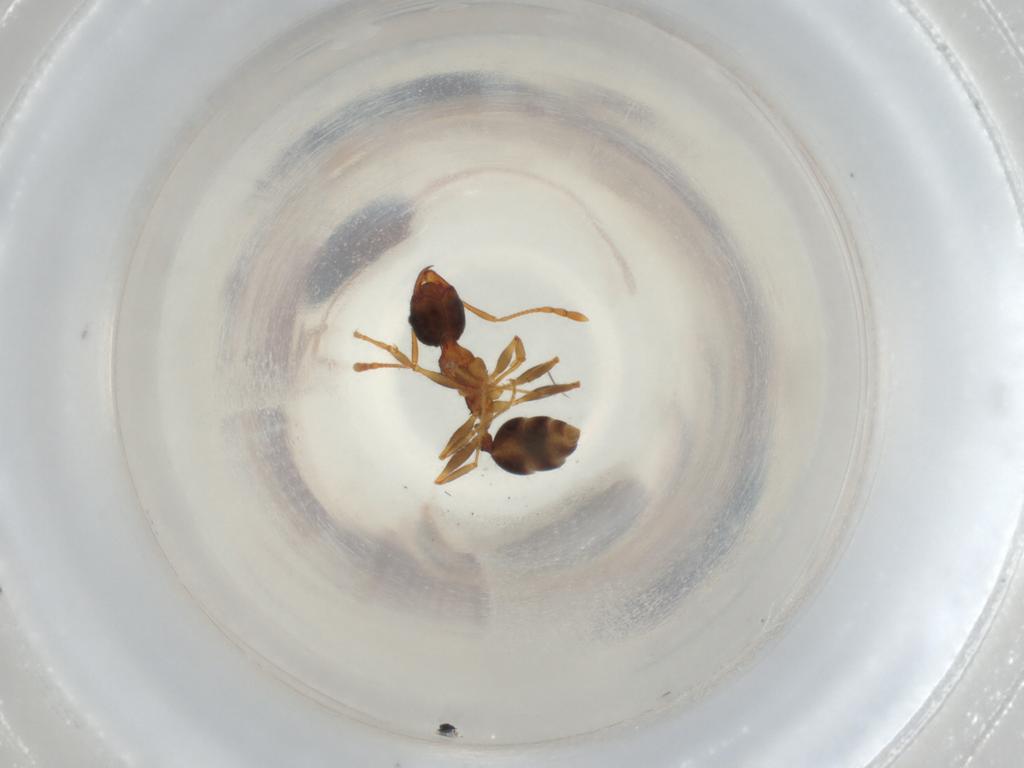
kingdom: Animalia
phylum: Arthropoda
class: Insecta
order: Hymenoptera
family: Formicidae
